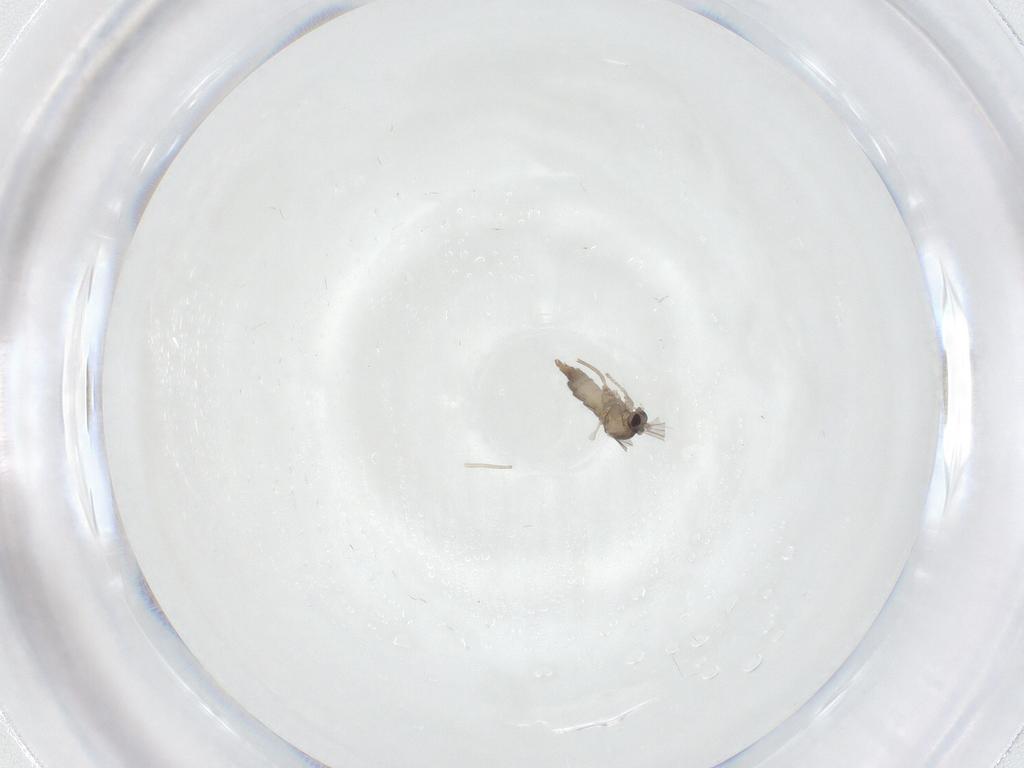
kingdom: Animalia
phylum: Arthropoda
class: Insecta
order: Diptera
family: Cecidomyiidae
